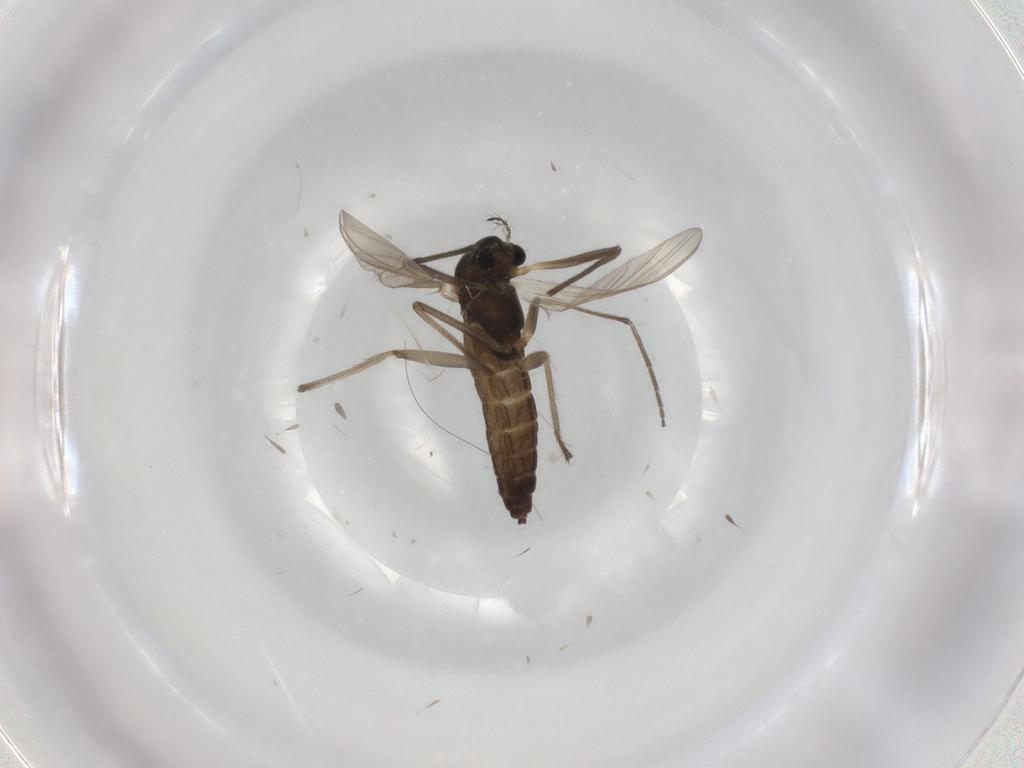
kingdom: Animalia
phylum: Arthropoda
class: Insecta
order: Diptera
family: Chironomidae
